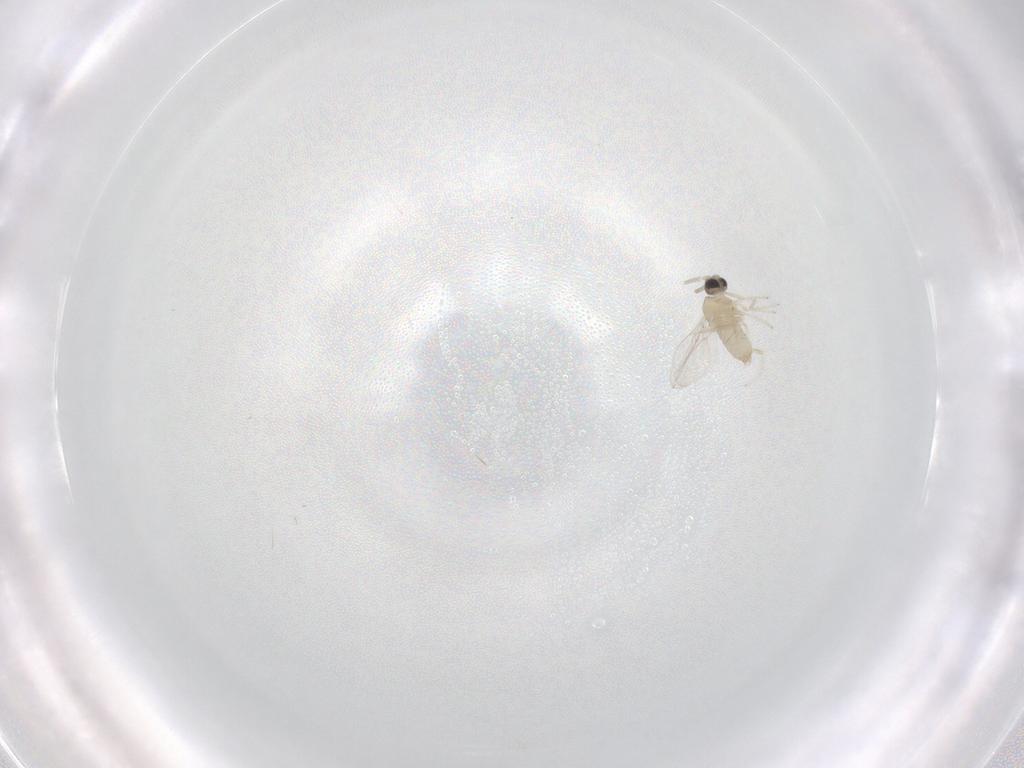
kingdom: Animalia
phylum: Arthropoda
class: Insecta
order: Diptera
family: Cecidomyiidae
